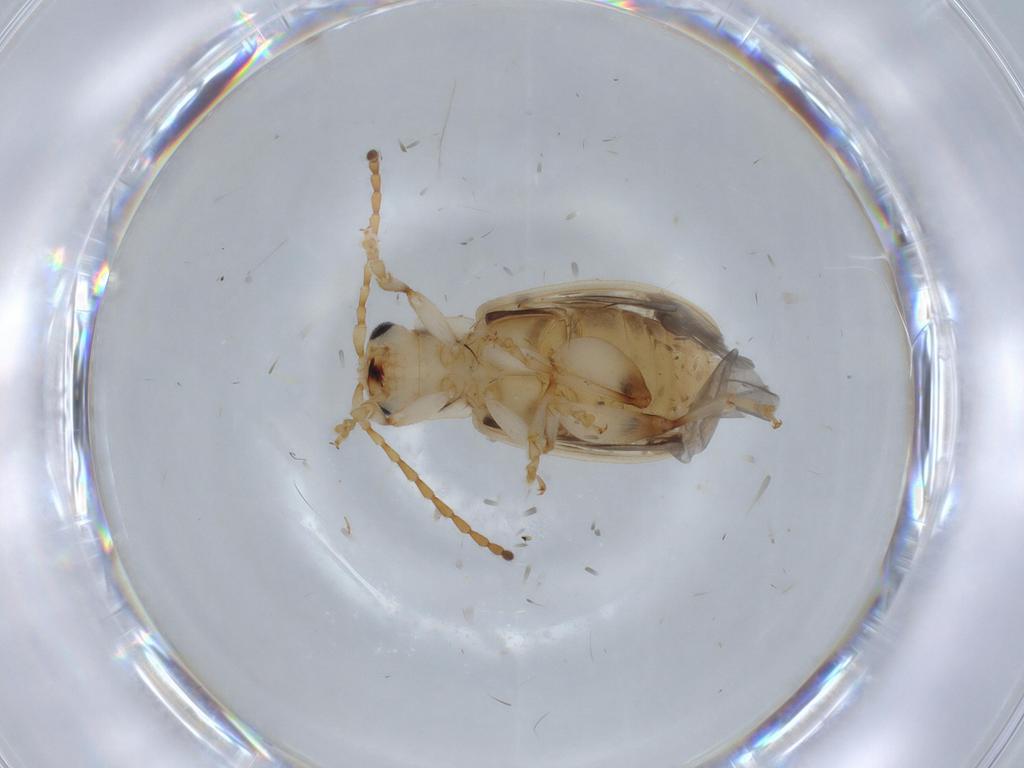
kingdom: Animalia
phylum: Arthropoda
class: Insecta
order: Coleoptera
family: Chrysomelidae
